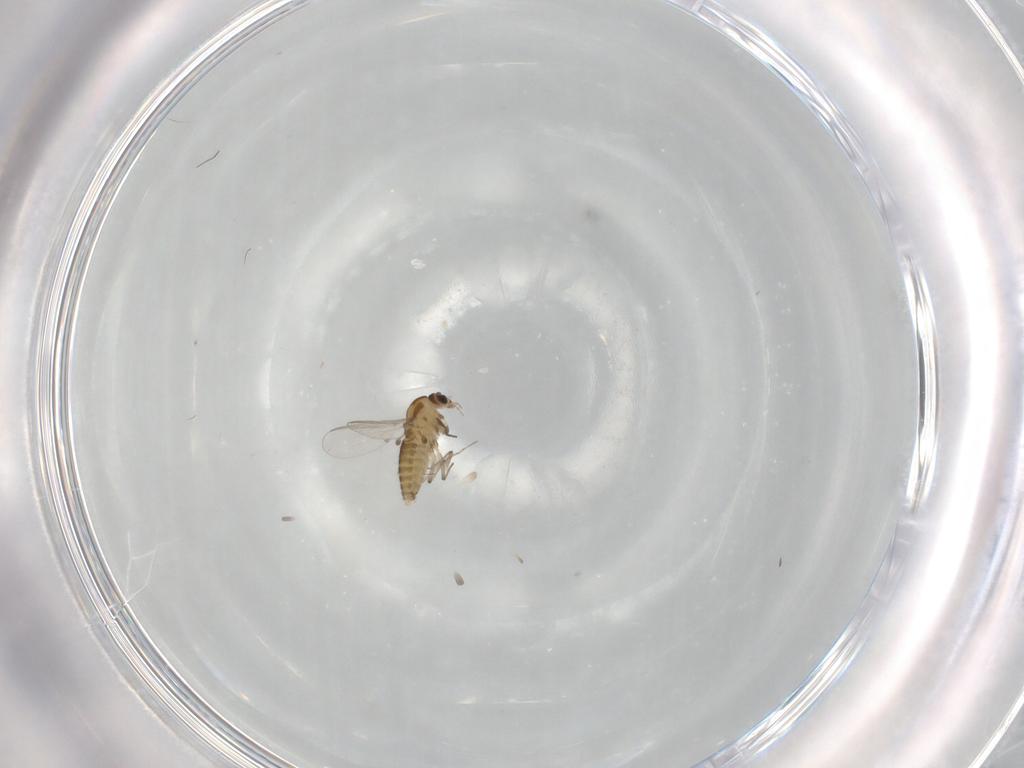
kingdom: Animalia
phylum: Arthropoda
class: Insecta
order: Diptera
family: Chironomidae
